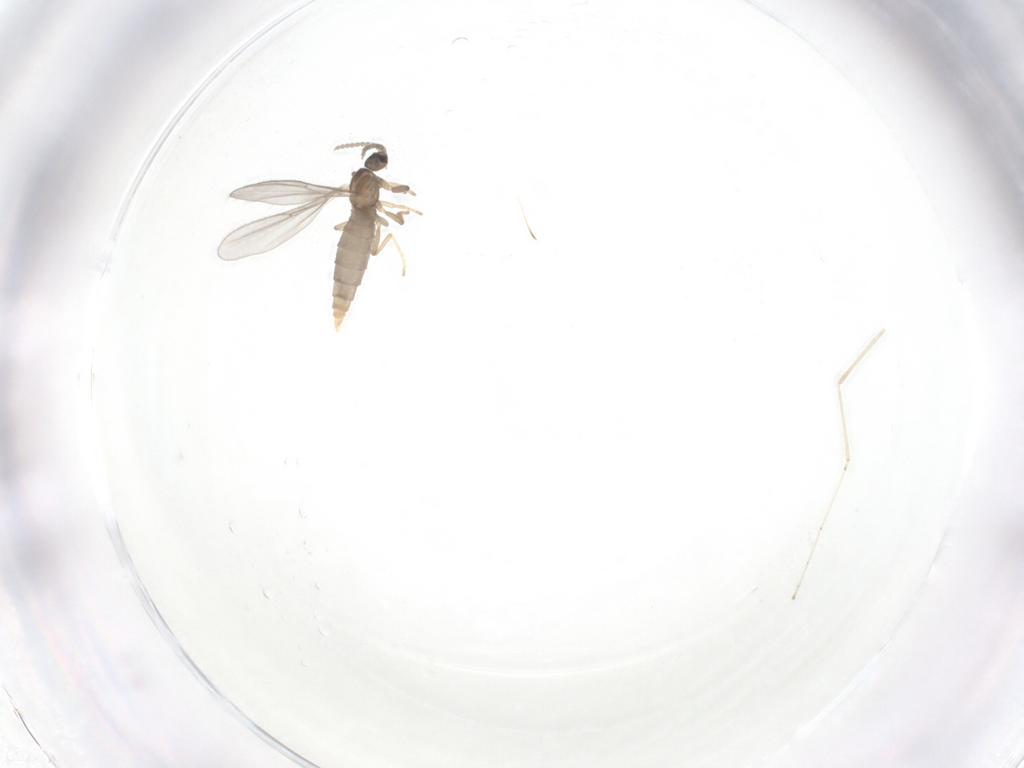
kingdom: Animalia
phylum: Arthropoda
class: Insecta
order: Diptera
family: Cecidomyiidae
